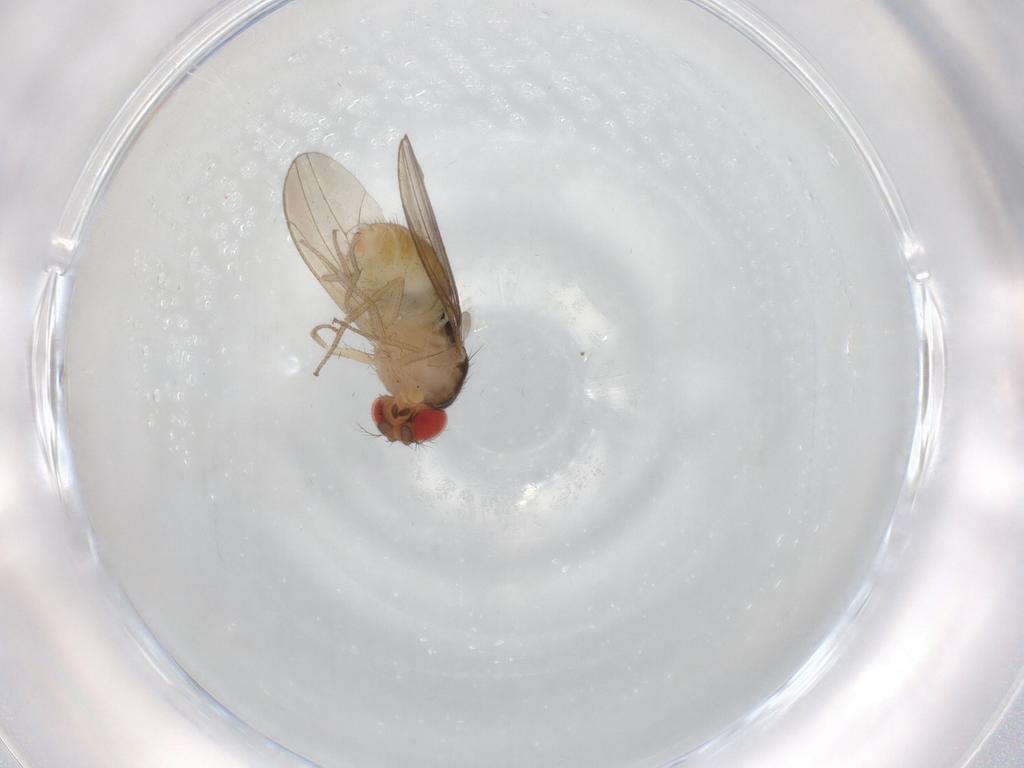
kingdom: Animalia
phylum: Arthropoda
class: Insecta
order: Diptera
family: Drosophilidae
